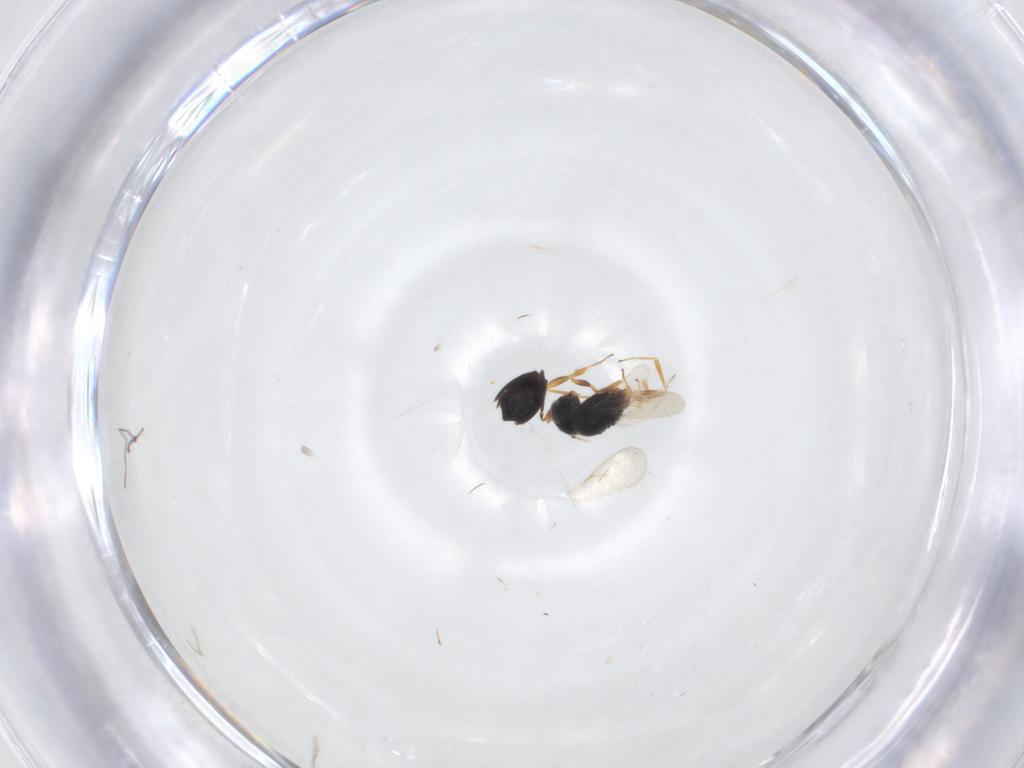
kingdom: Animalia
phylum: Arthropoda
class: Insecta
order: Hymenoptera
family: Scelionidae
